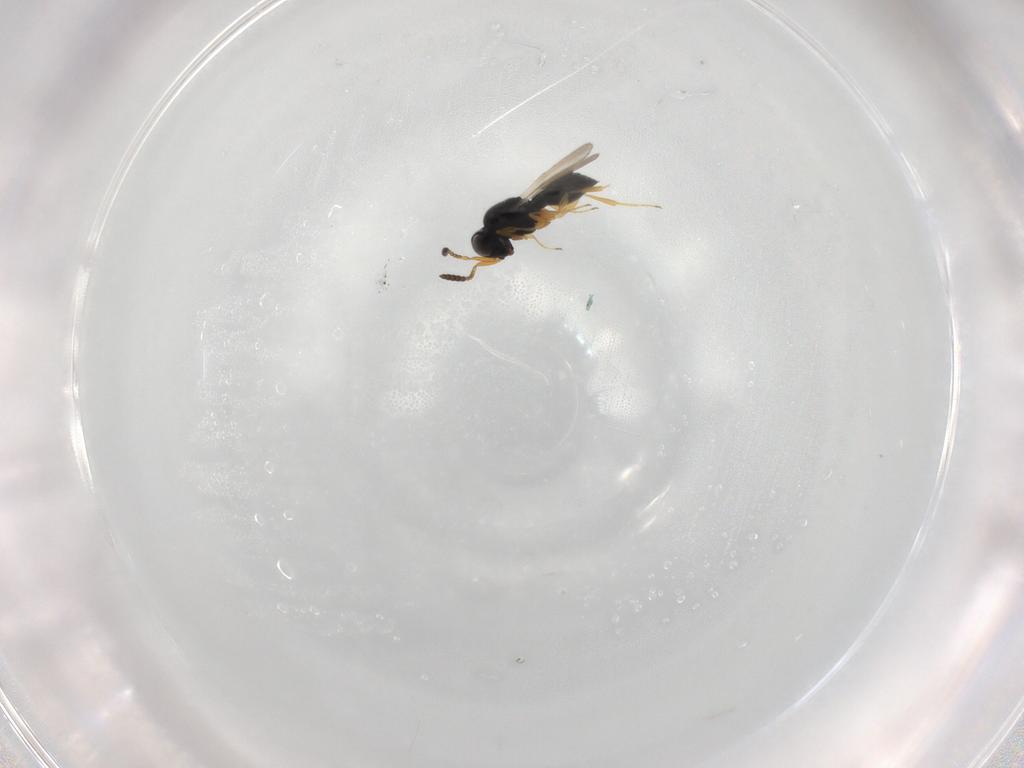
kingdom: Animalia
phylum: Arthropoda
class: Insecta
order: Hymenoptera
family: Scelionidae
